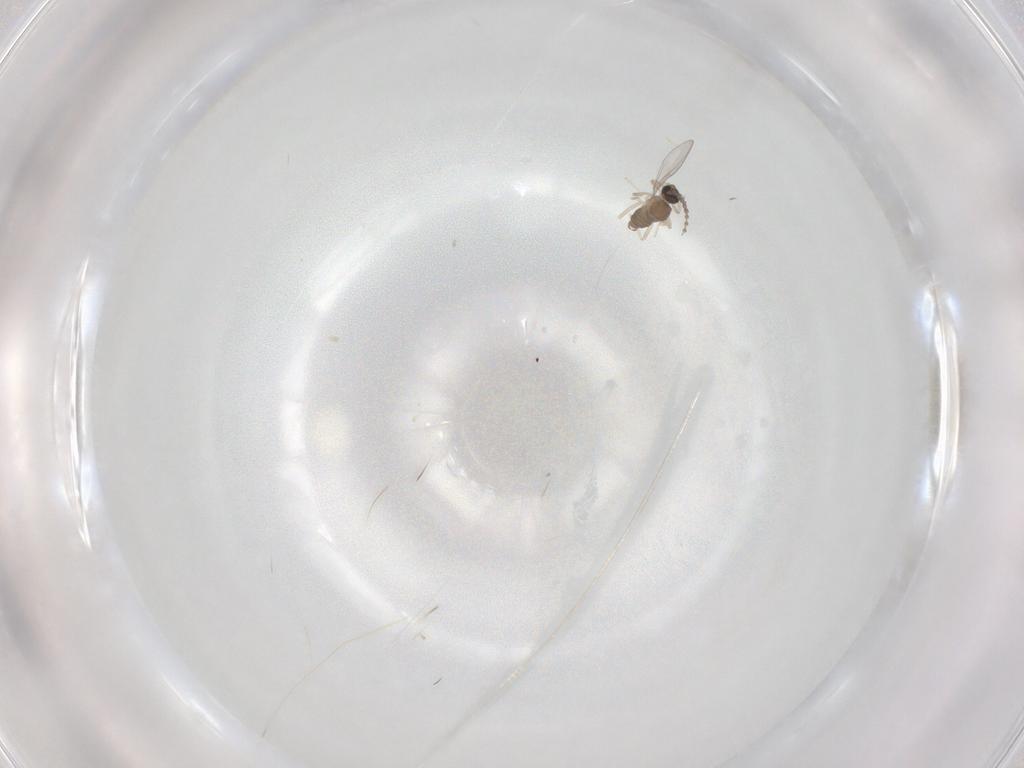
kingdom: Animalia
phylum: Arthropoda
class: Insecta
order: Diptera
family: Cecidomyiidae
